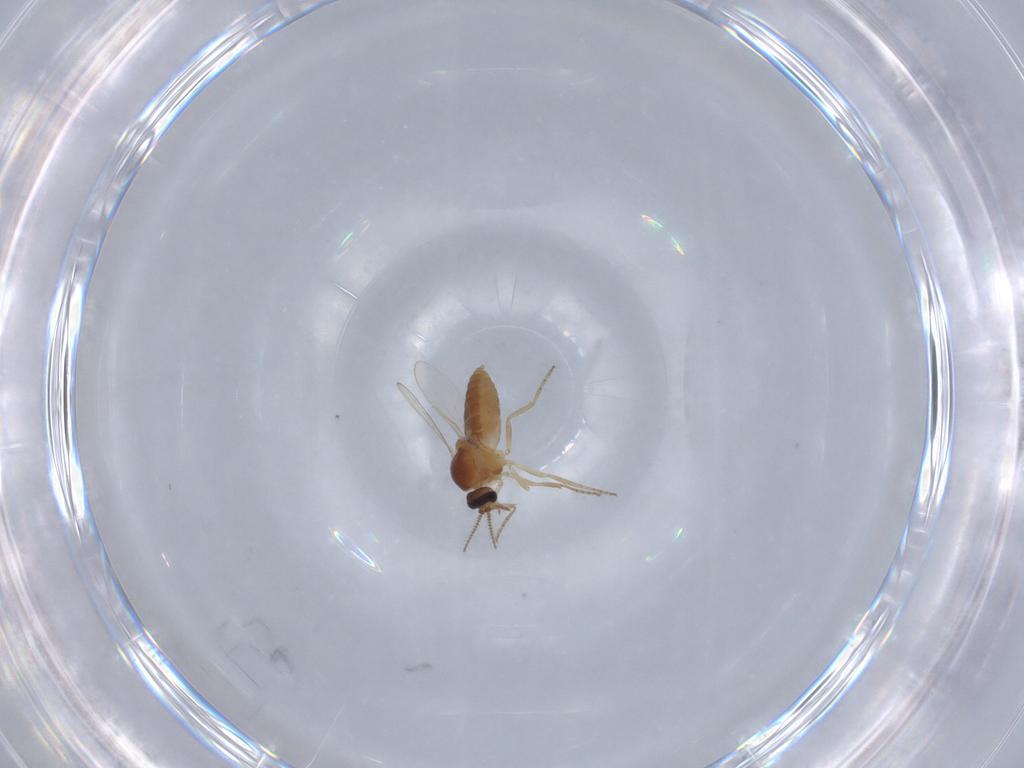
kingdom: Animalia
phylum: Arthropoda
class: Insecta
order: Diptera
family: Ceratopogonidae
